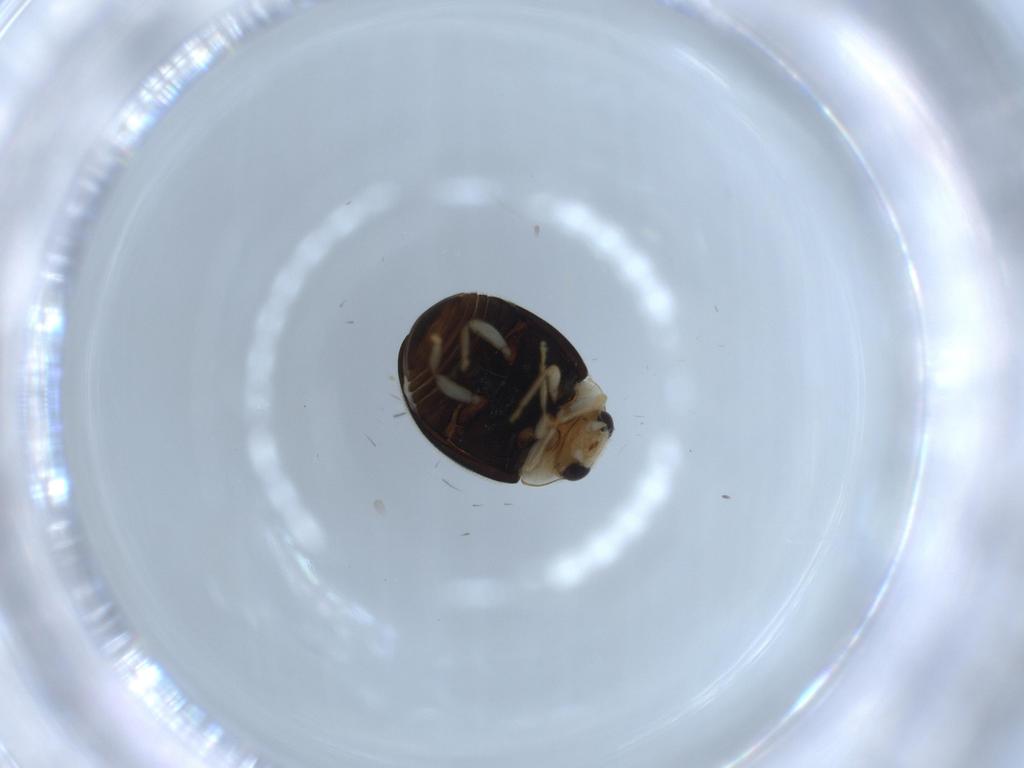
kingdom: Animalia
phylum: Arthropoda
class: Insecta
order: Coleoptera
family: Coccinellidae
